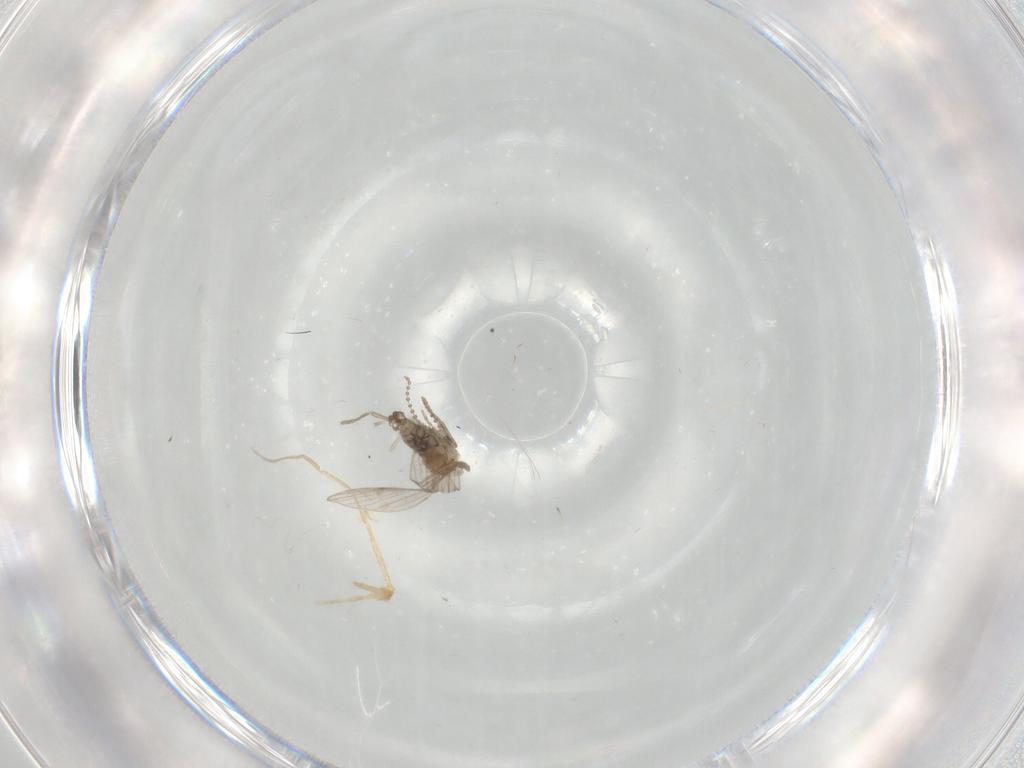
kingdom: Animalia
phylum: Arthropoda
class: Insecta
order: Diptera
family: Psychodidae
